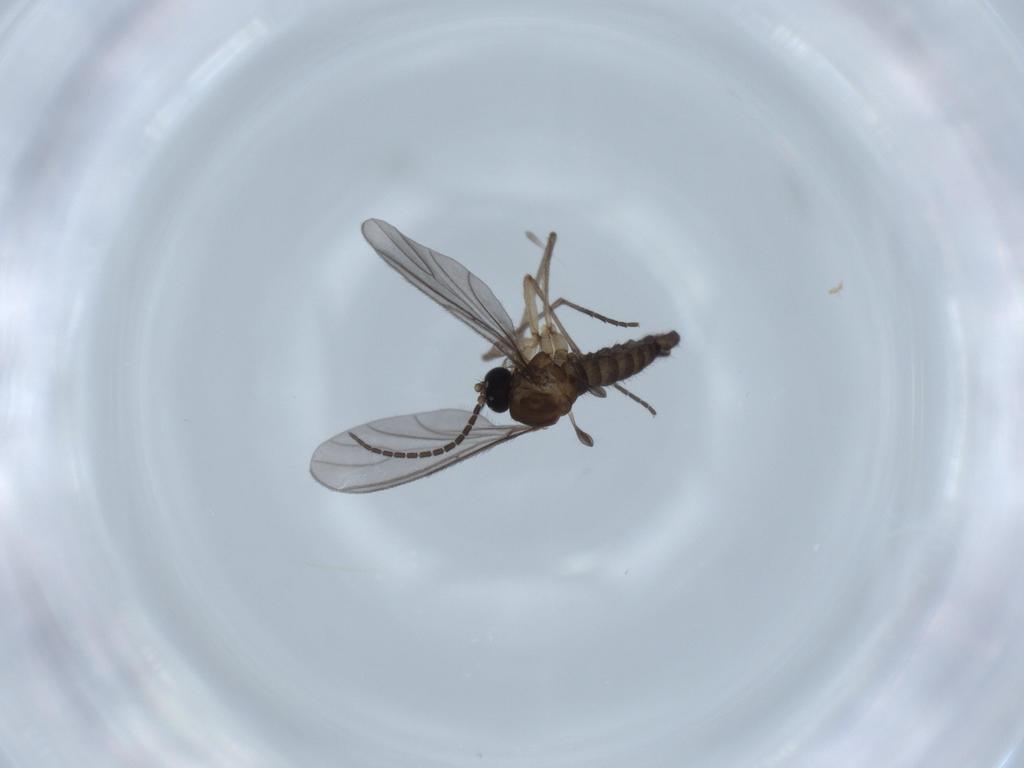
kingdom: Animalia
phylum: Arthropoda
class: Insecta
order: Diptera
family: Sciaridae
